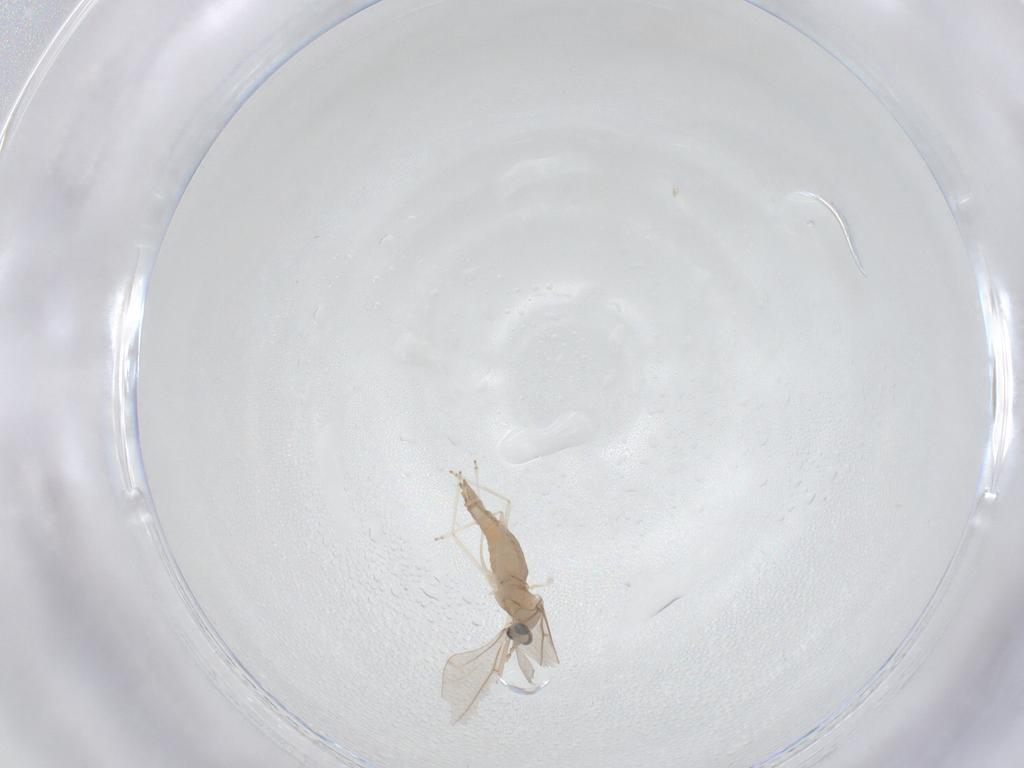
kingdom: Animalia
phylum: Arthropoda
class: Insecta
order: Diptera
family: Cecidomyiidae
